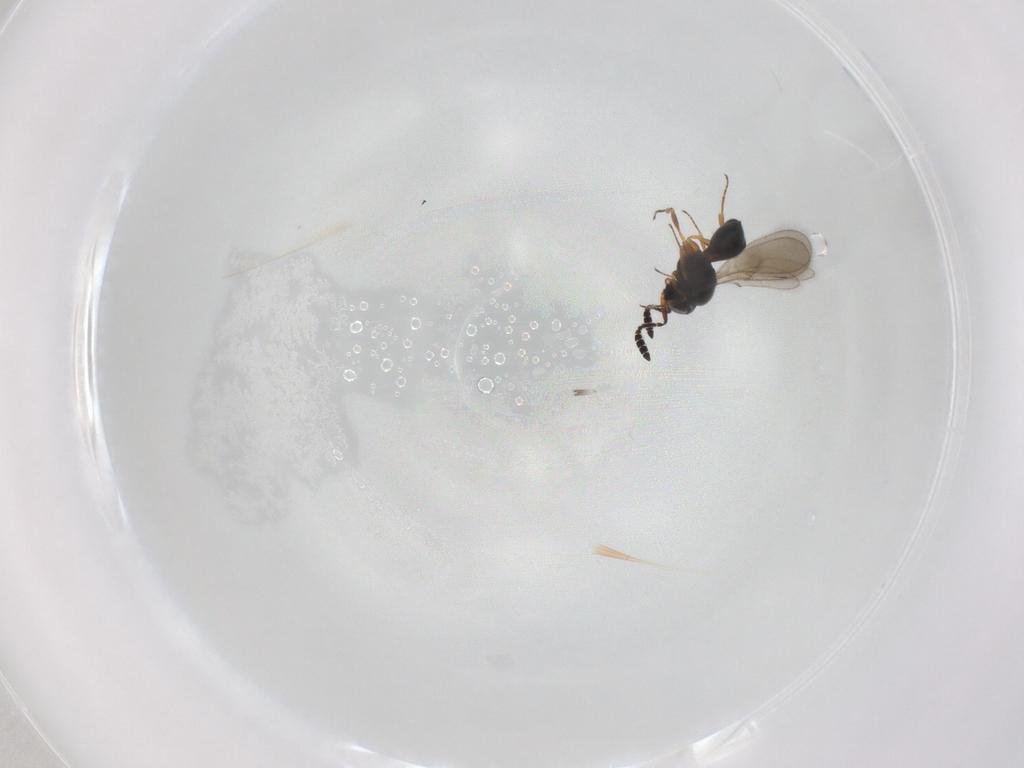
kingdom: Animalia
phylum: Arthropoda
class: Insecta
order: Hymenoptera
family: Scelionidae
